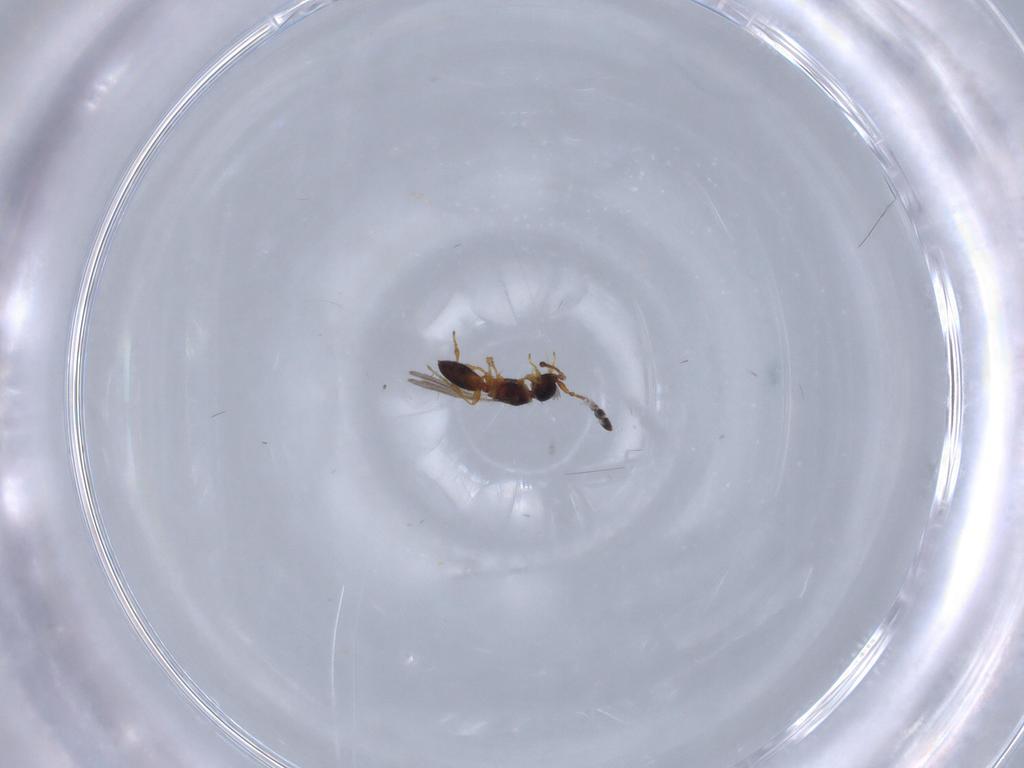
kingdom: Animalia
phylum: Arthropoda
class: Insecta
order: Hymenoptera
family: Diapriidae
